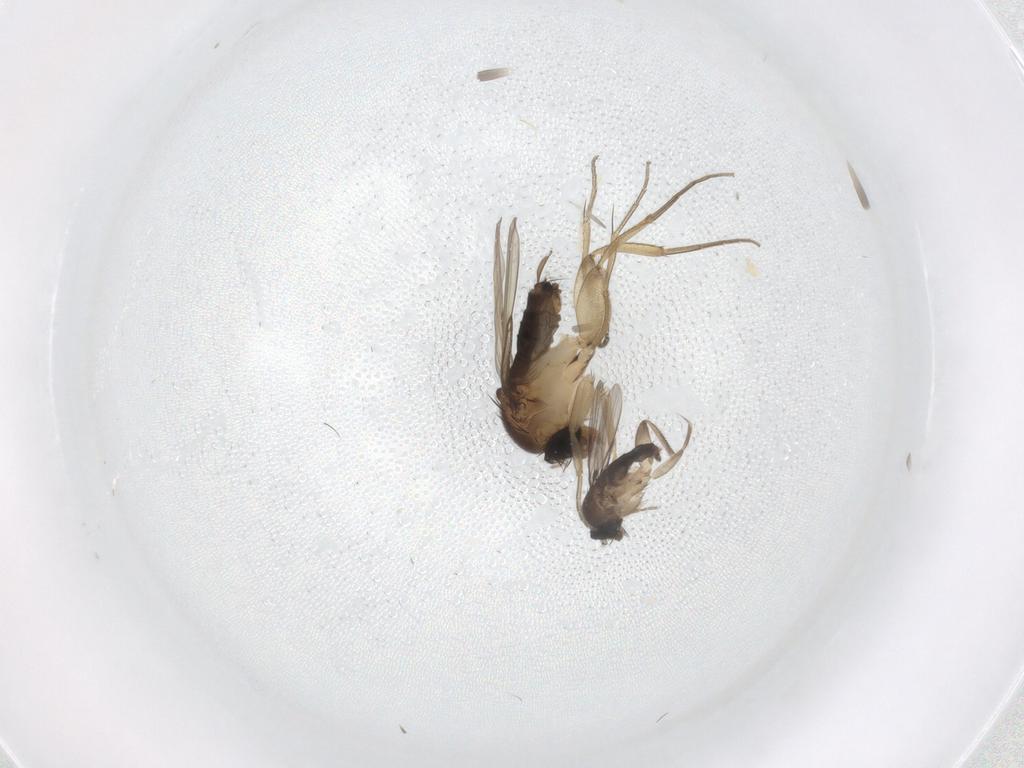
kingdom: Animalia
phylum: Arthropoda
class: Insecta
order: Diptera
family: Phoridae
